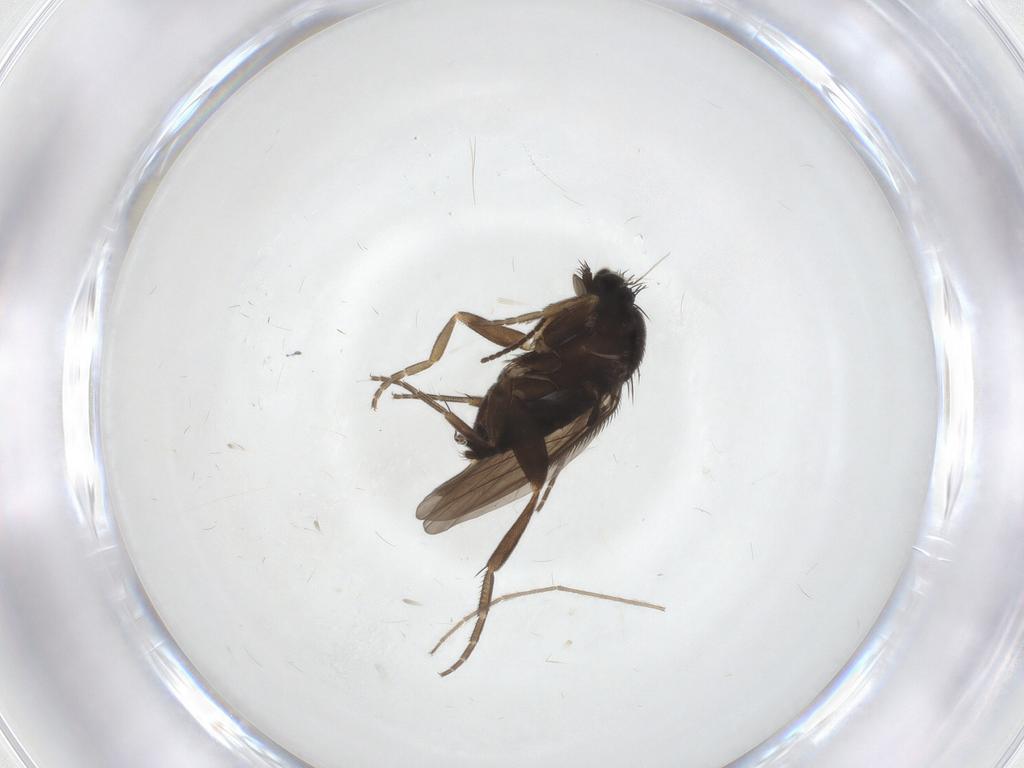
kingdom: Animalia
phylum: Arthropoda
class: Insecta
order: Diptera
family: Phoridae
